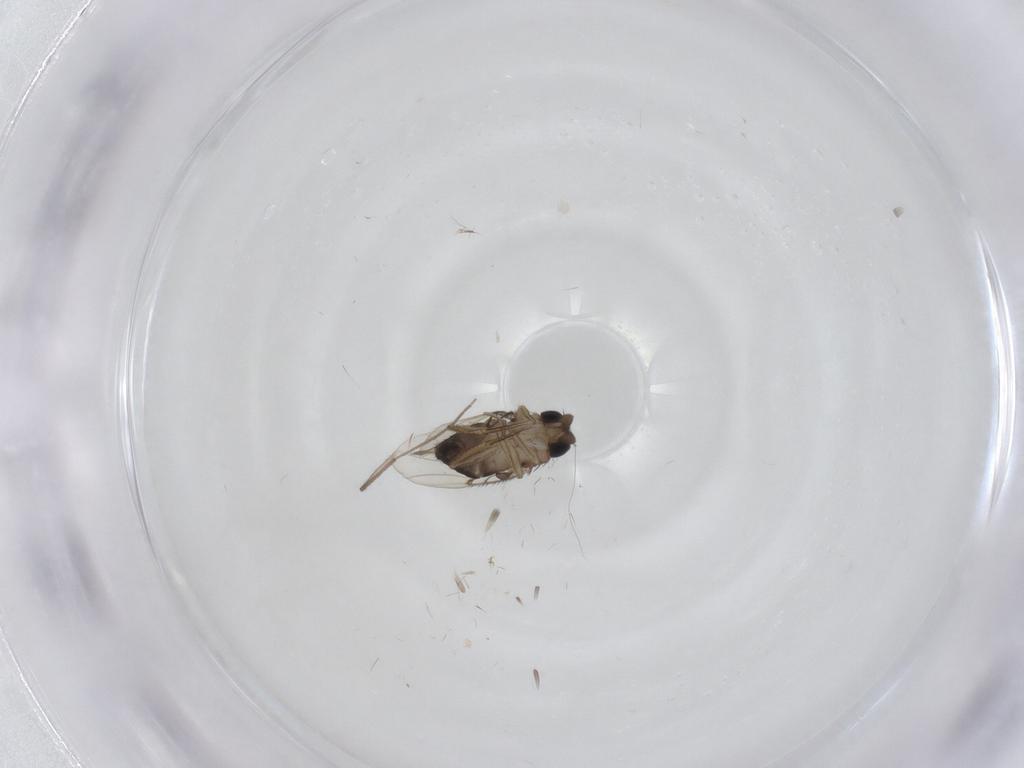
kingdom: Animalia
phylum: Arthropoda
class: Insecta
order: Diptera
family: Chironomidae
